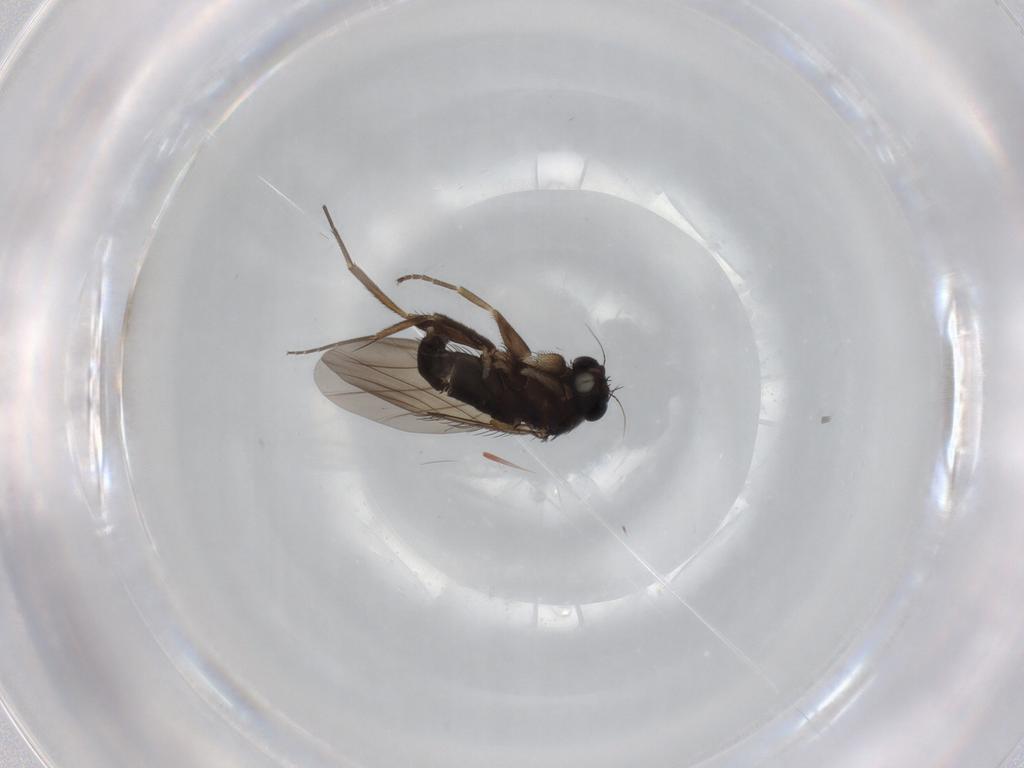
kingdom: Animalia
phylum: Arthropoda
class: Insecta
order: Diptera
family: Phoridae
